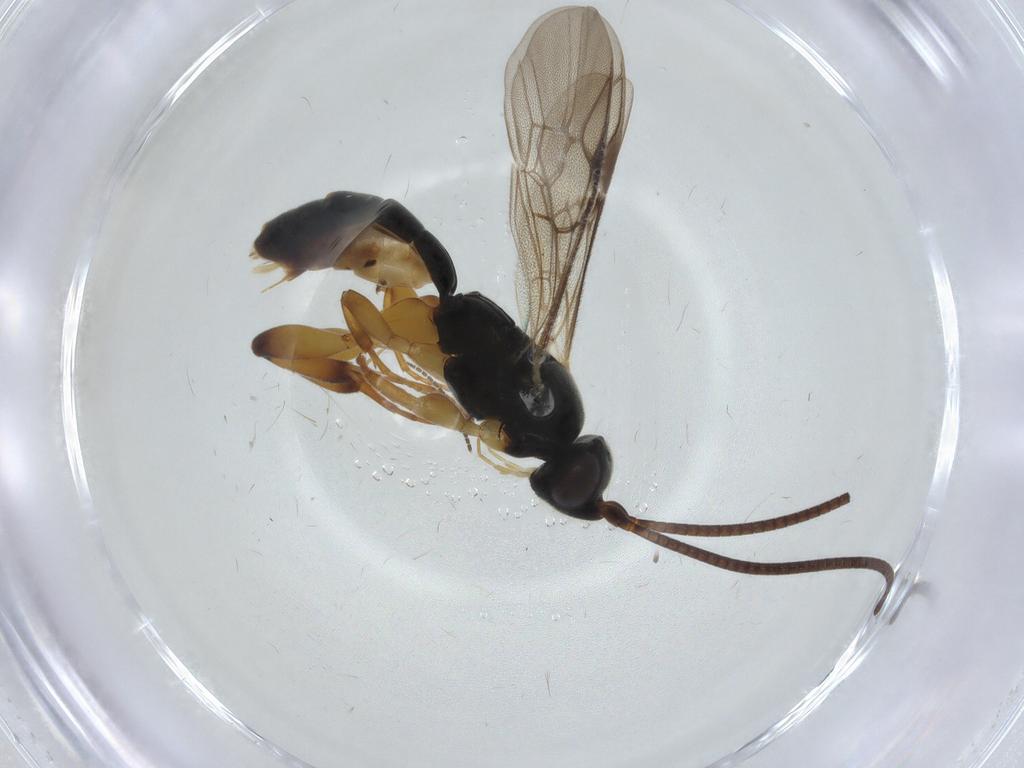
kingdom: Animalia
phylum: Arthropoda
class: Insecta
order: Hymenoptera
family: Ichneumonidae
